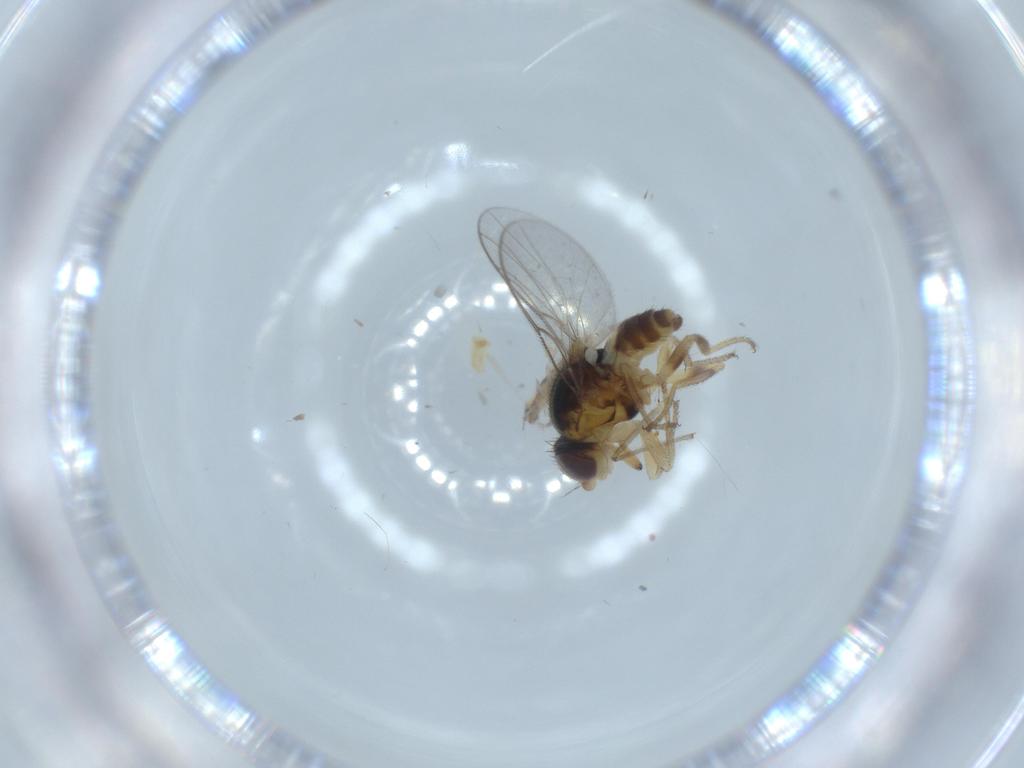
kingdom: Animalia
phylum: Arthropoda
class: Insecta
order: Diptera
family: Chloropidae
